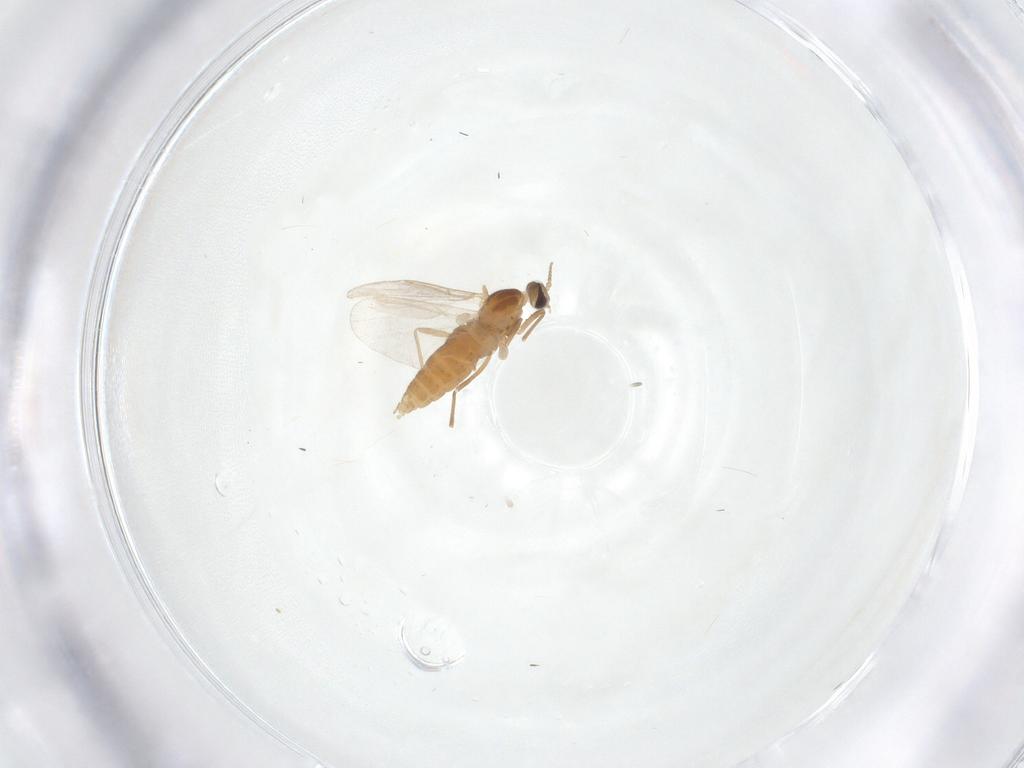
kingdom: Animalia
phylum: Arthropoda
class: Insecta
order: Diptera
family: Cecidomyiidae
